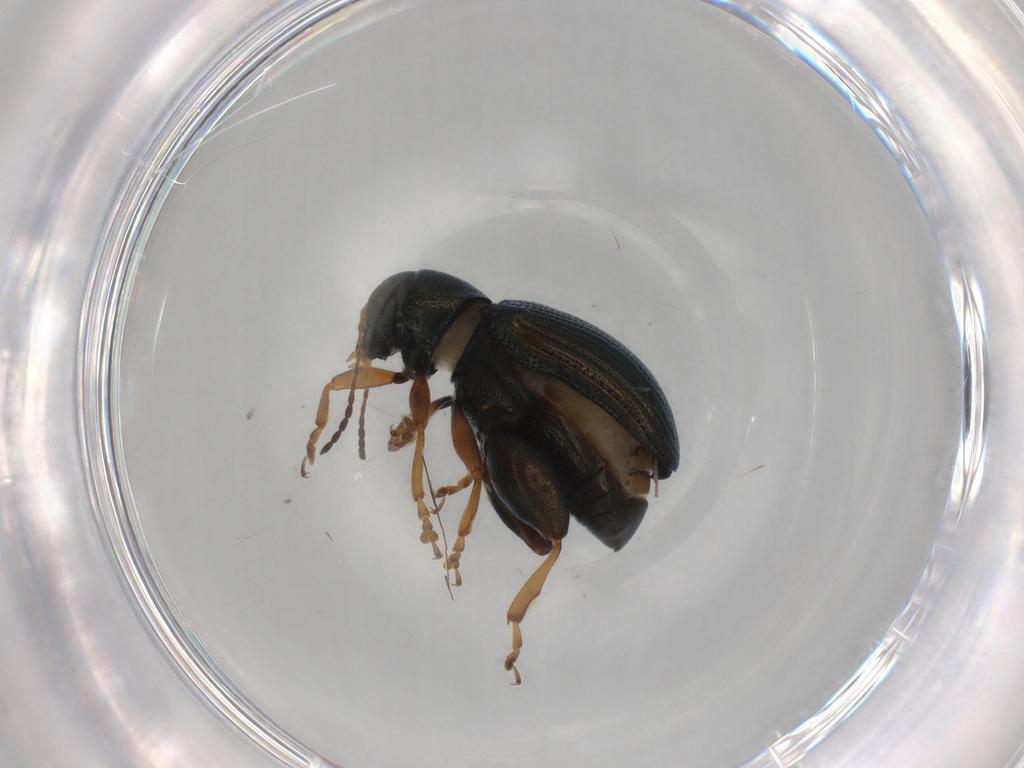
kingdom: Animalia
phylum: Arthropoda
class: Insecta
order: Coleoptera
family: Chrysomelidae
